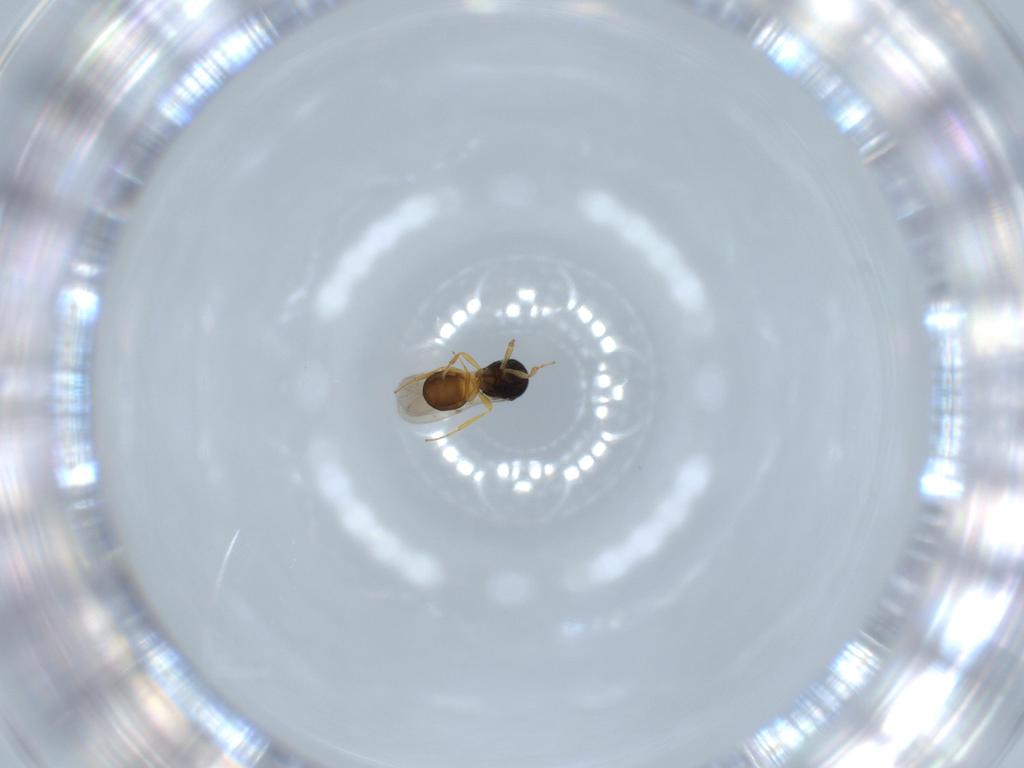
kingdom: Animalia
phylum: Arthropoda
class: Insecta
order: Hymenoptera
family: Scelionidae
